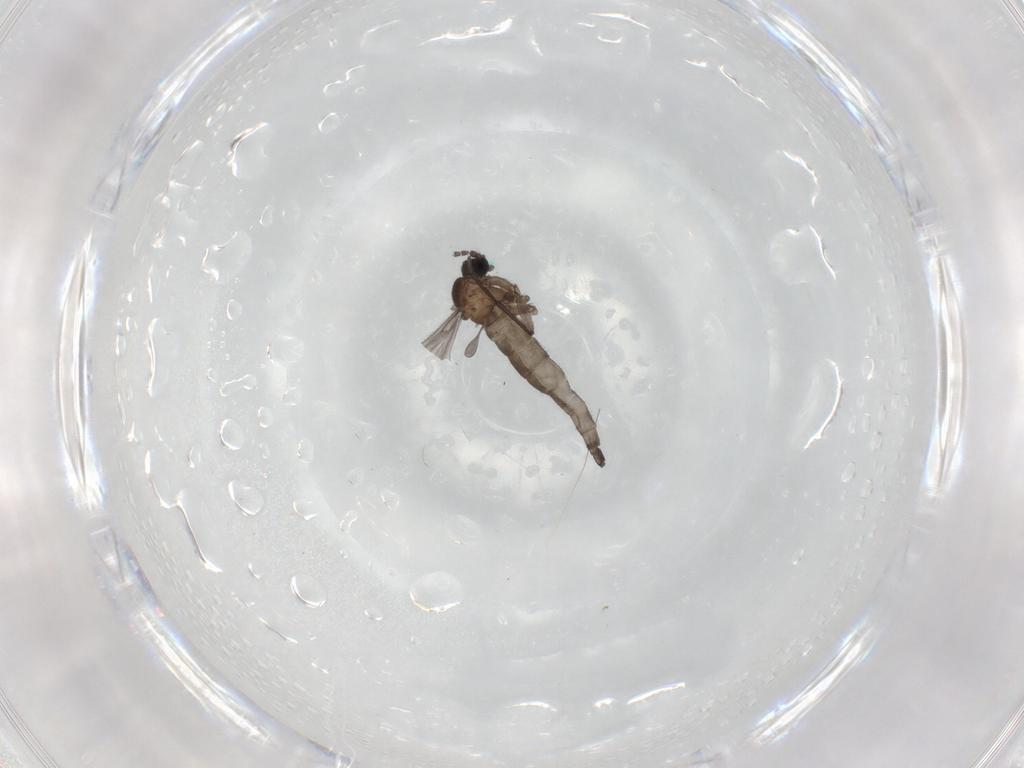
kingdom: Animalia
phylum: Arthropoda
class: Insecta
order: Diptera
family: Sciaridae
